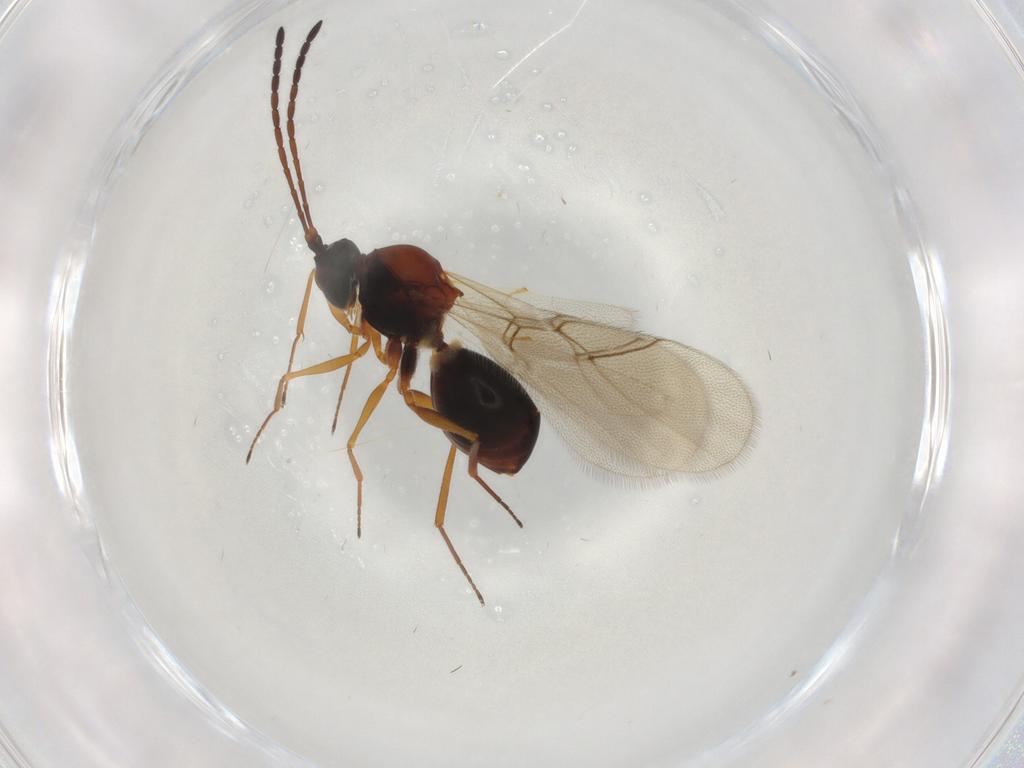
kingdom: Animalia
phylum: Arthropoda
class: Insecta
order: Hymenoptera
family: Figitidae
